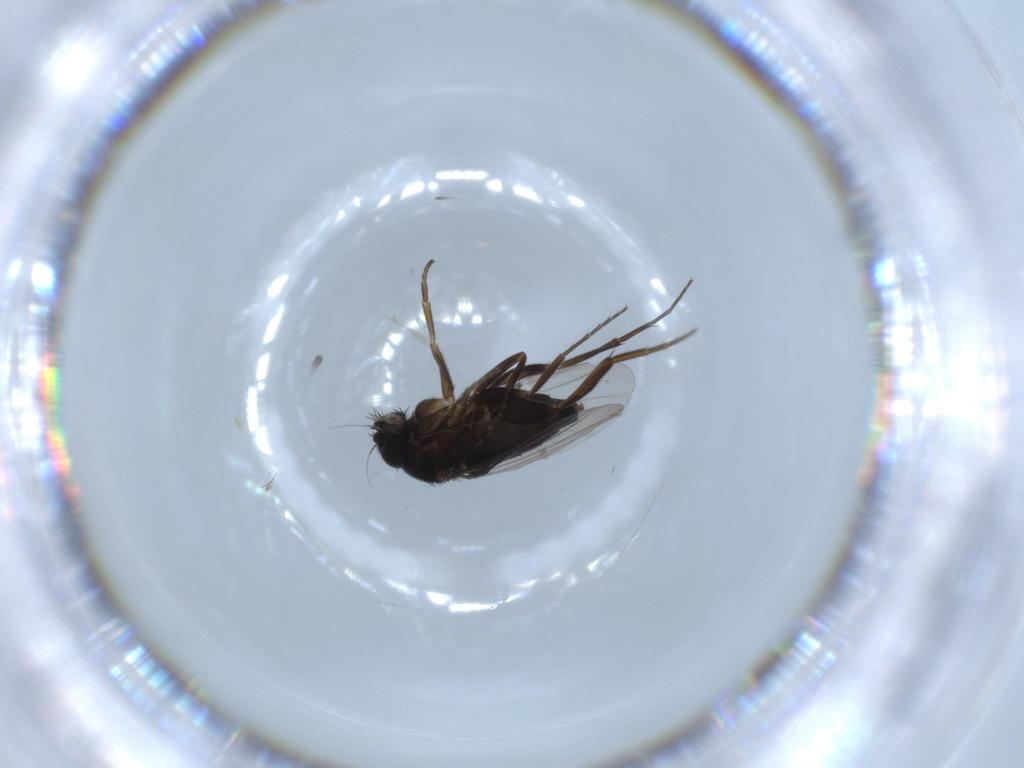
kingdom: Animalia
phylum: Arthropoda
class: Insecta
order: Diptera
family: Phoridae
